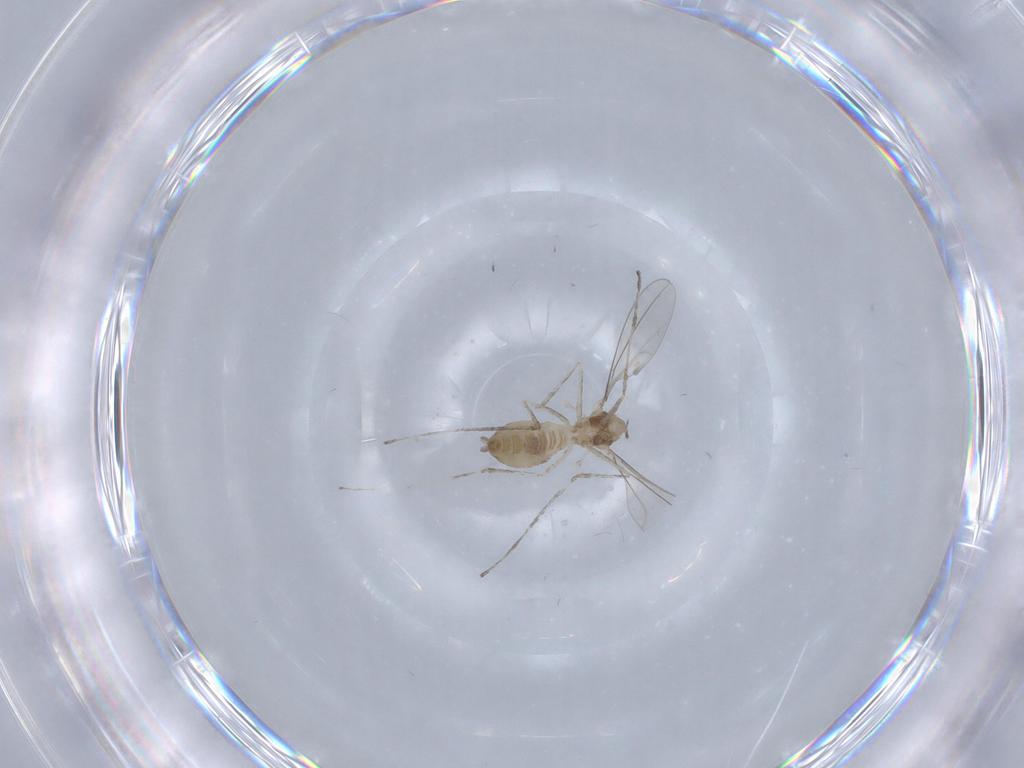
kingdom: Animalia
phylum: Arthropoda
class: Insecta
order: Diptera
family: Cecidomyiidae
